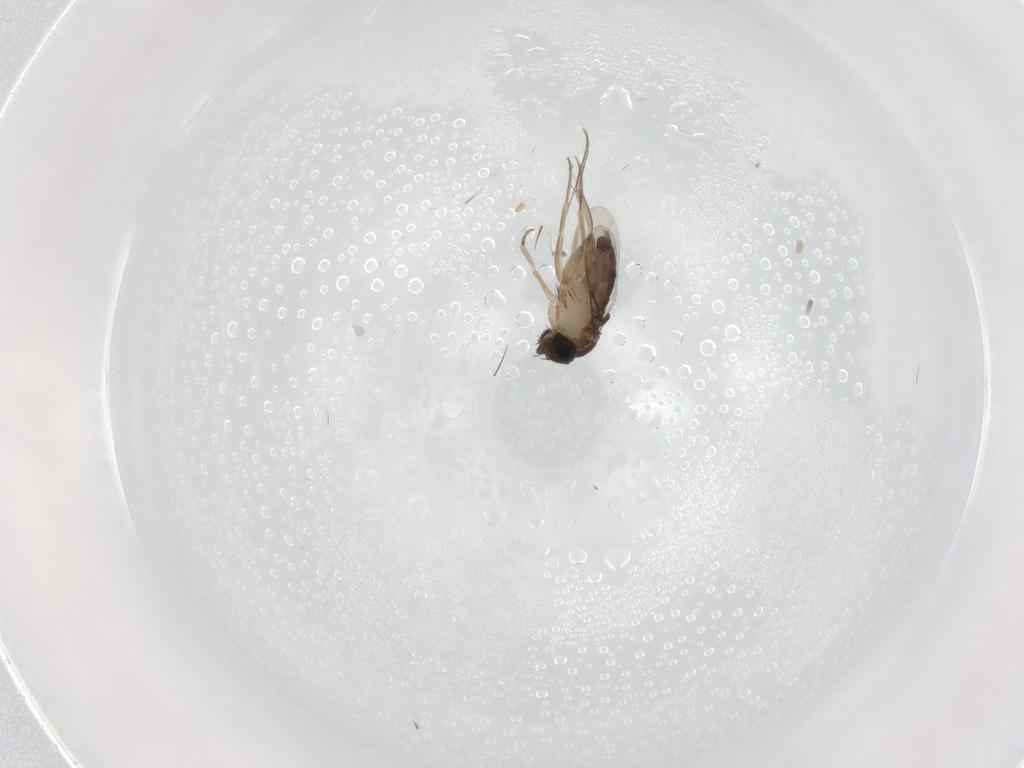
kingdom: Animalia
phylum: Arthropoda
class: Insecta
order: Diptera
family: Phoridae
